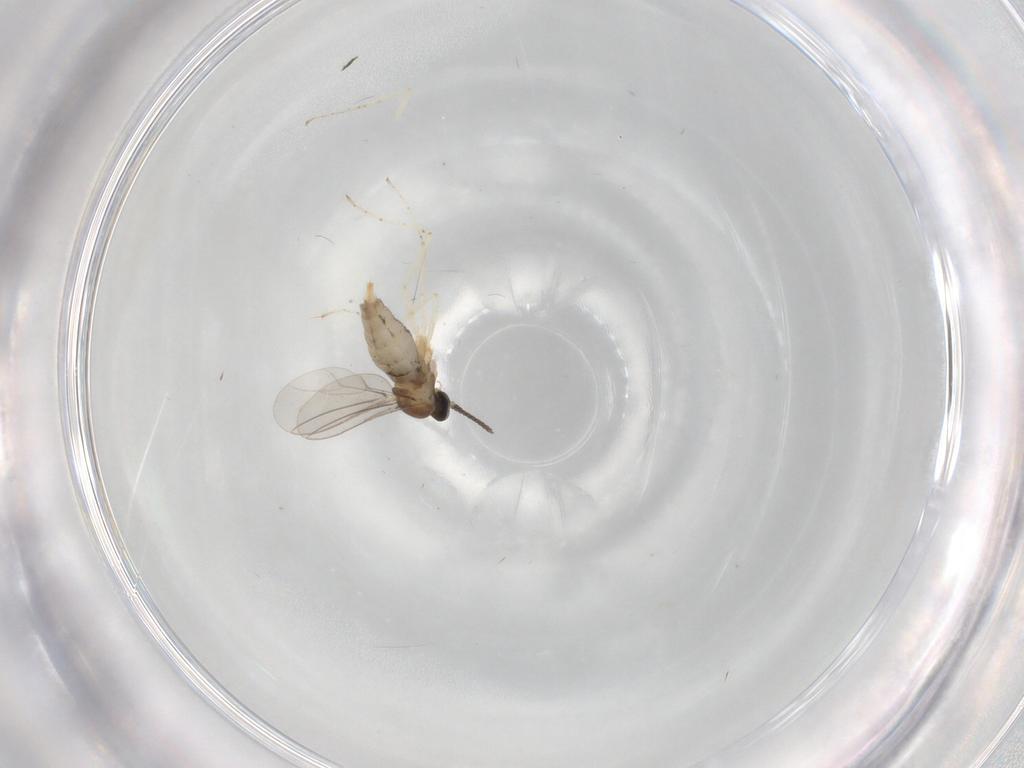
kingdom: Animalia
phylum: Arthropoda
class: Insecta
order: Diptera
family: Cecidomyiidae
